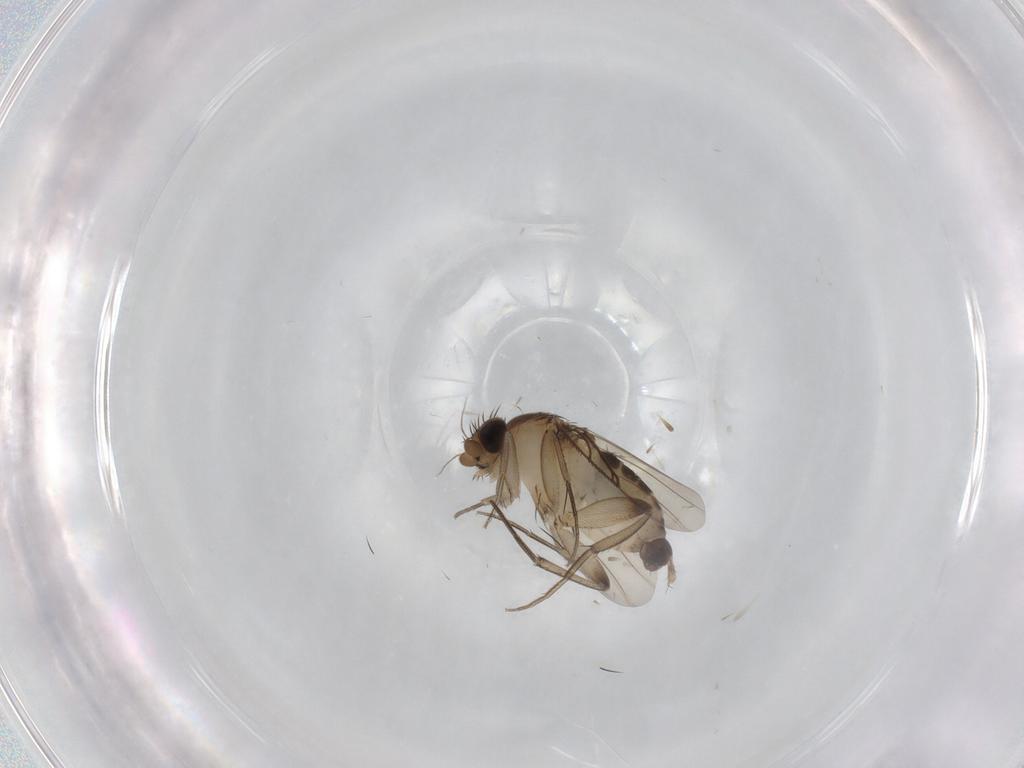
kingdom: Animalia
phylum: Arthropoda
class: Insecta
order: Diptera
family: Phoridae
